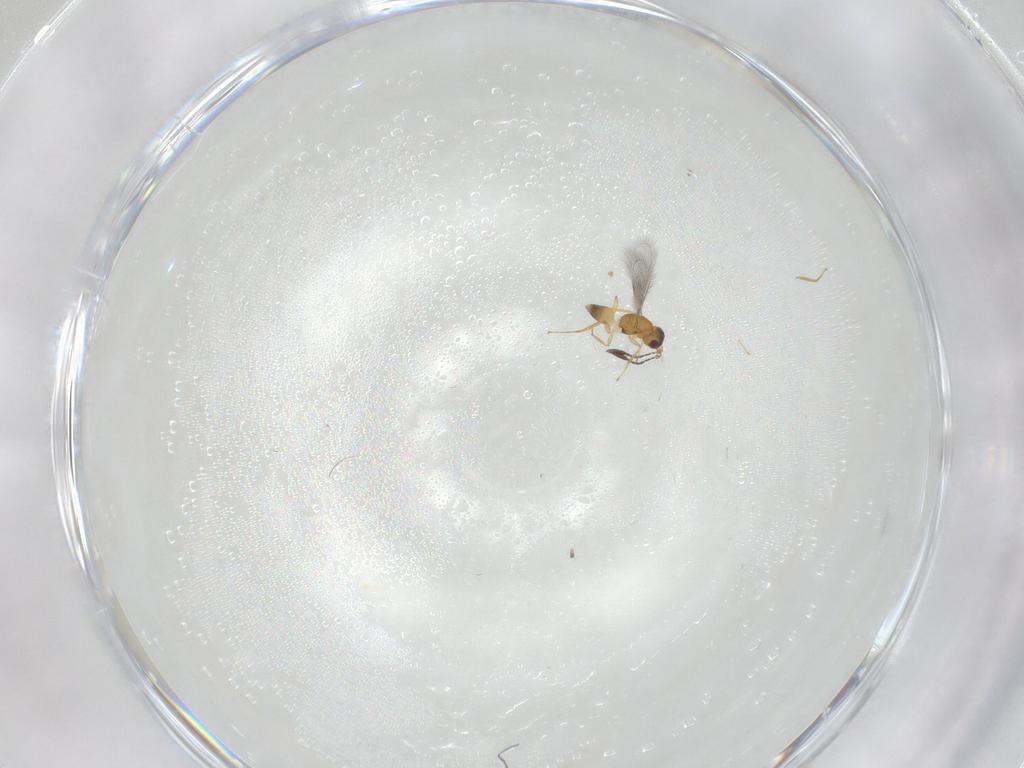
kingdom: Animalia
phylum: Arthropoda
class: Insecta
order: Hymenoptera
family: Mymaridae
